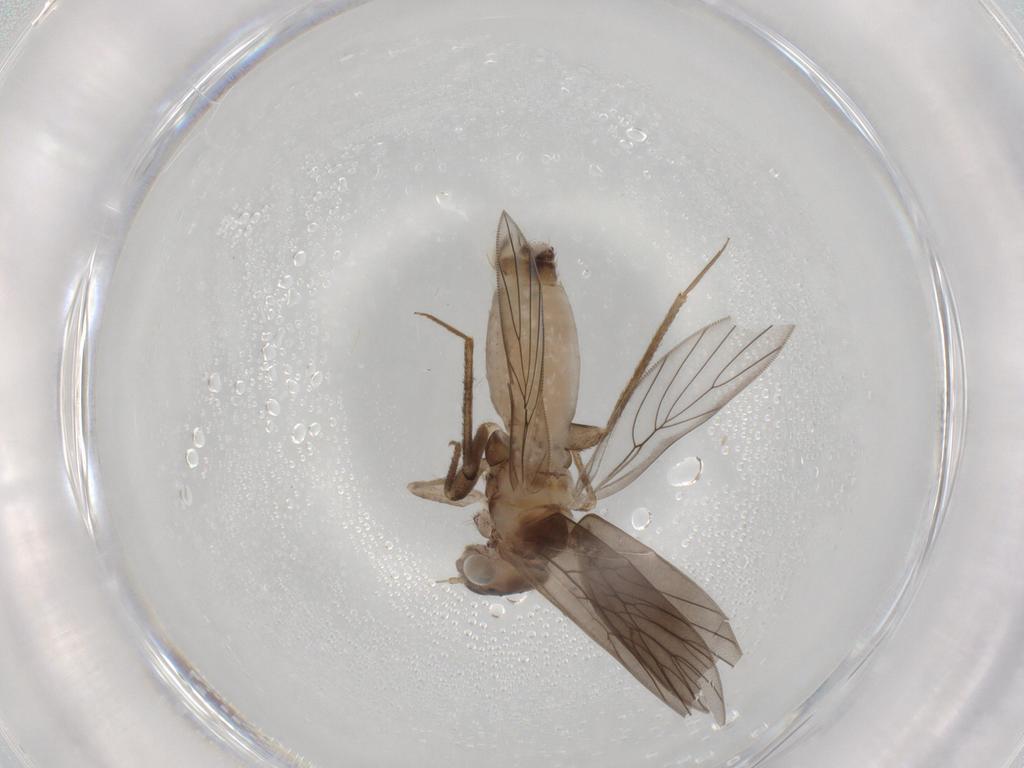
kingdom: Animalia
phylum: Arthropoda
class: Insecta
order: Psocodea
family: Lepidopsocidae
